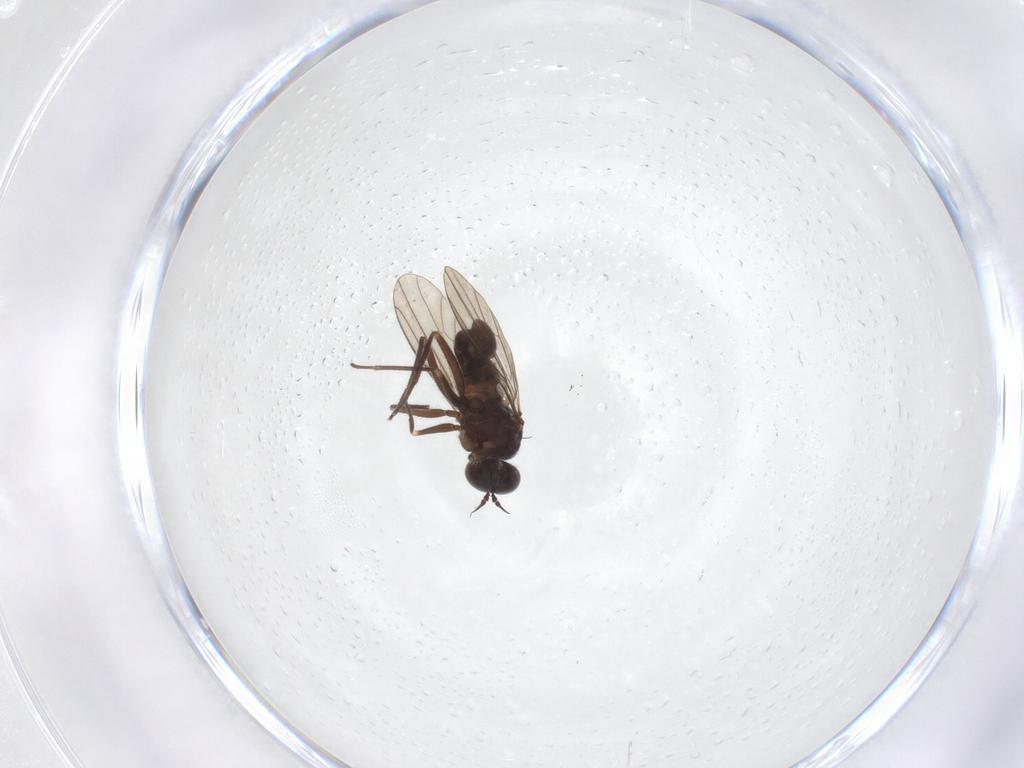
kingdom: Animalia
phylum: Arthropoda
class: Insecta
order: Diptera
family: Dolichopodidae
